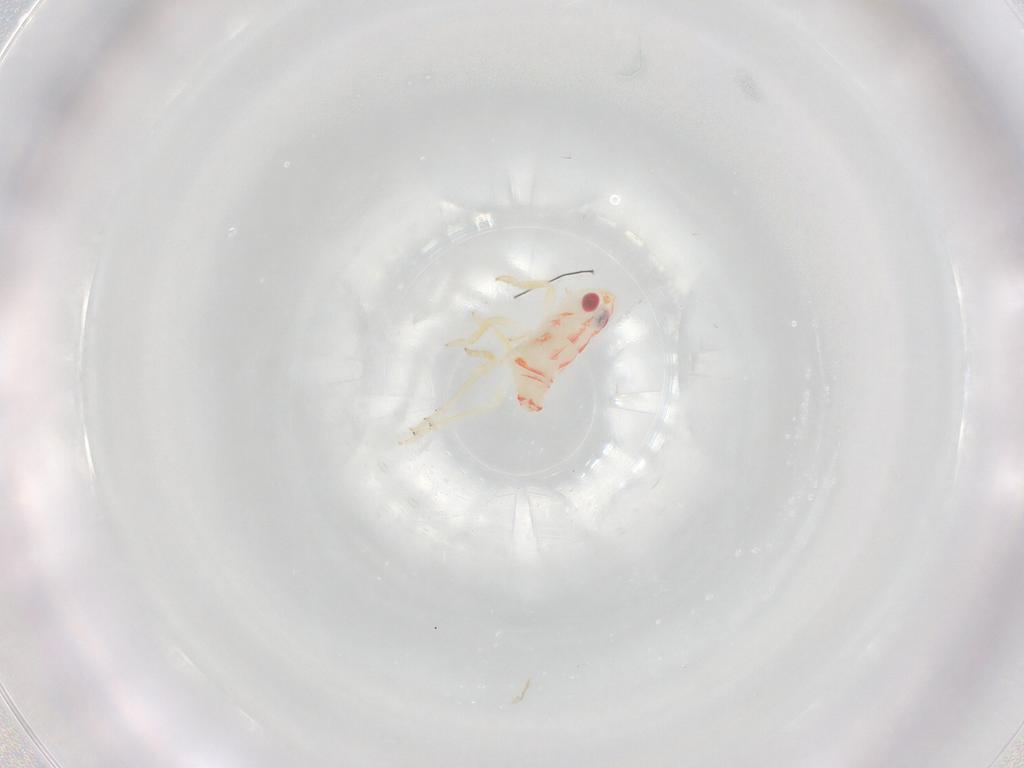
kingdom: Animalia
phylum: Arthropoda
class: Insecta
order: Hemiptera
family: Tropiduchidae
